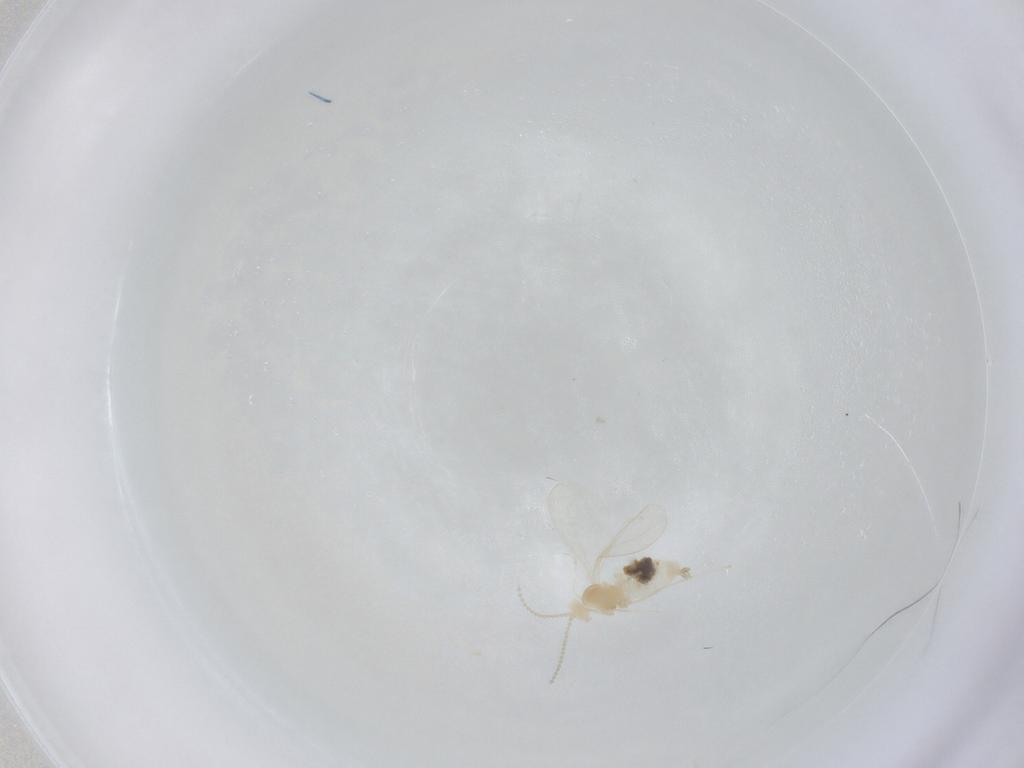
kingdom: Animalia
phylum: Arthropoda
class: Insecta
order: Diptera
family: Cecidomyiidae
